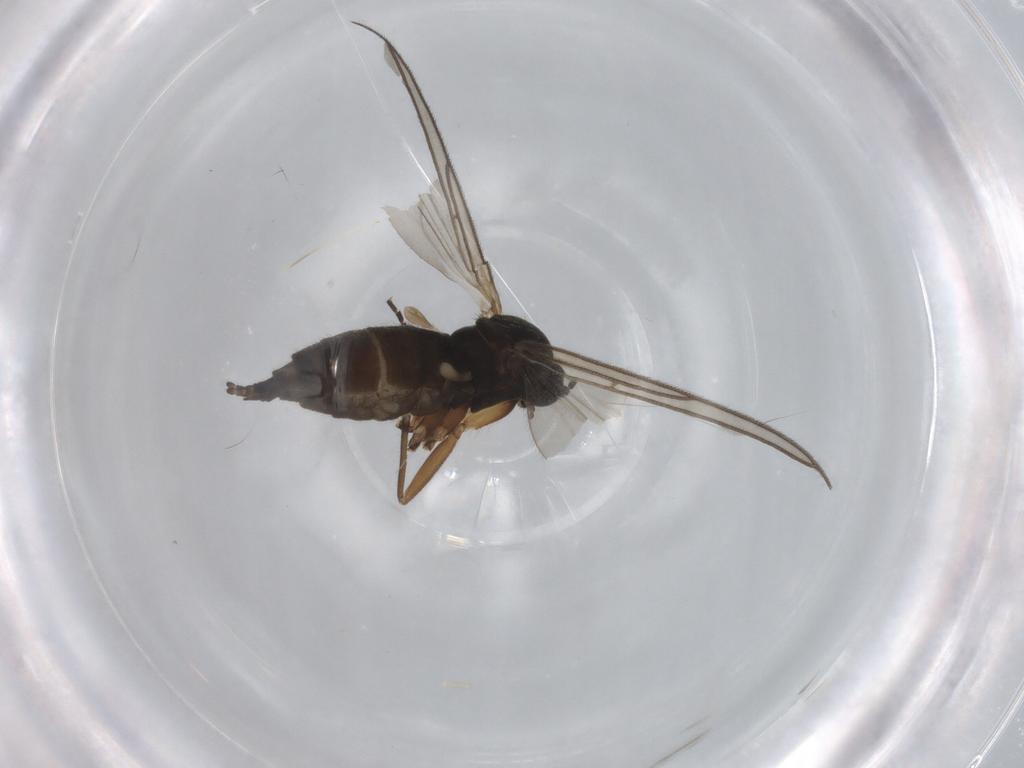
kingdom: Animalia
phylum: Arthropoda
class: Insecta
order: Diptera
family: Sciaridae
